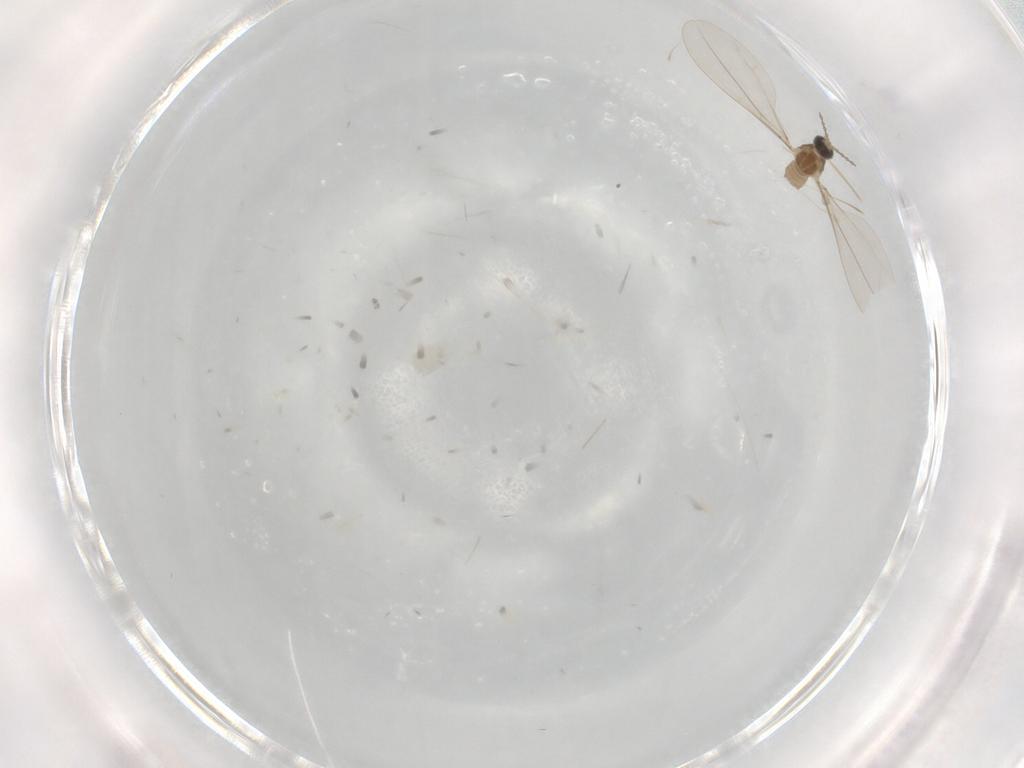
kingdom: Animalia
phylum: Arthropoda
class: Insecta
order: Diptera
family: Cecidomyiidae
